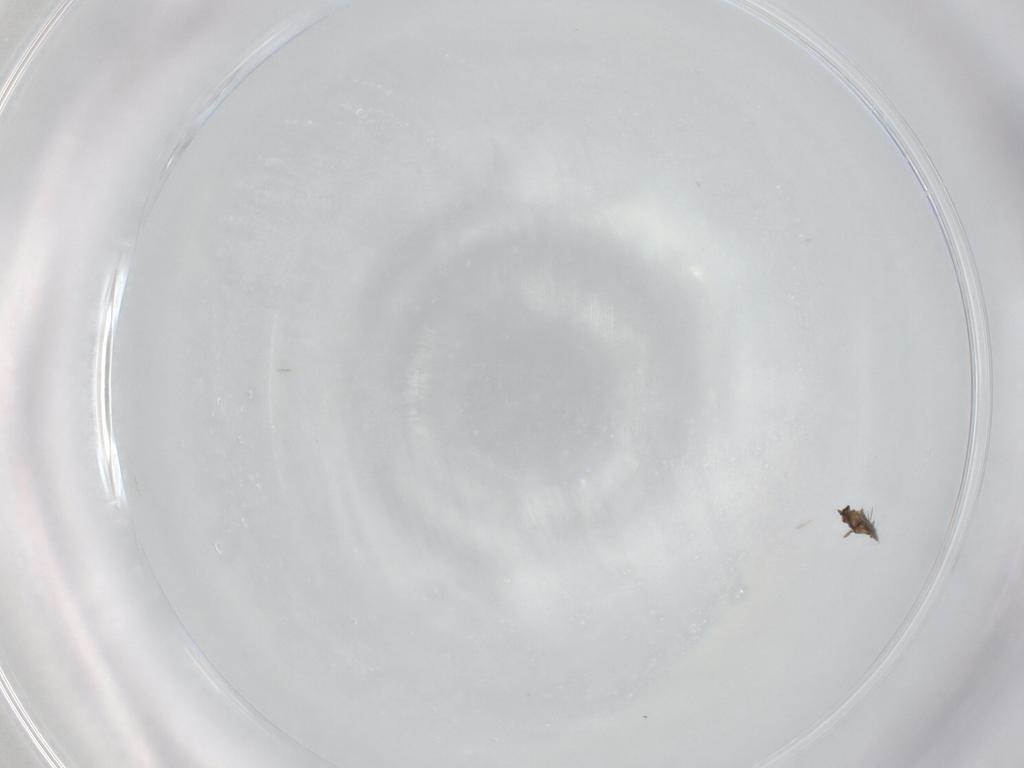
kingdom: Animalia
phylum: Arthropoda
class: Insecta
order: Diptera
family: Cecidomyiidae
